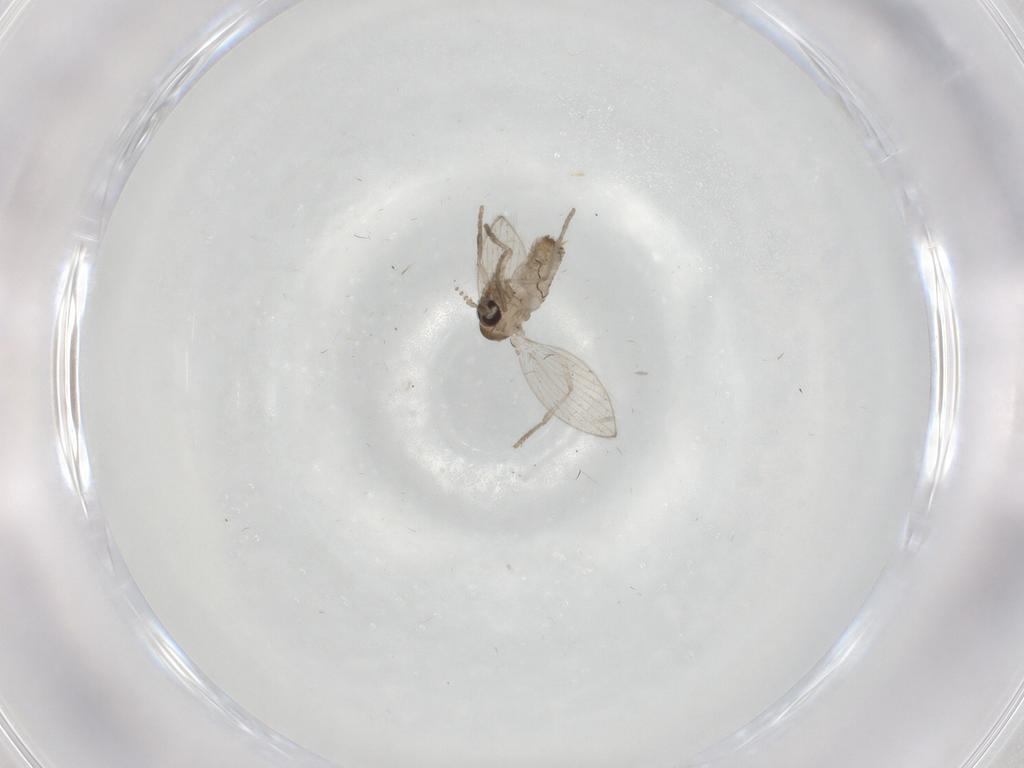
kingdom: Animalia
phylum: Arthropoda
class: Insecta
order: Diptera
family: Psychodidae
